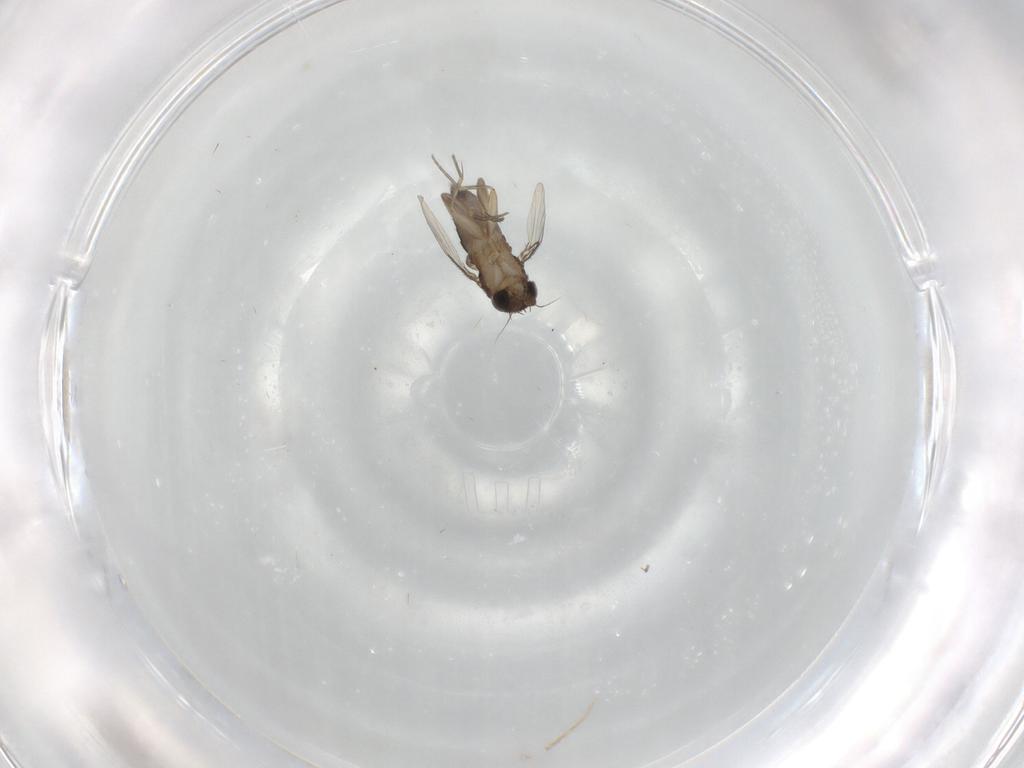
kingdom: Animalia
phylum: Arthropoda
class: Insecta
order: Diptera
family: Phoridae
